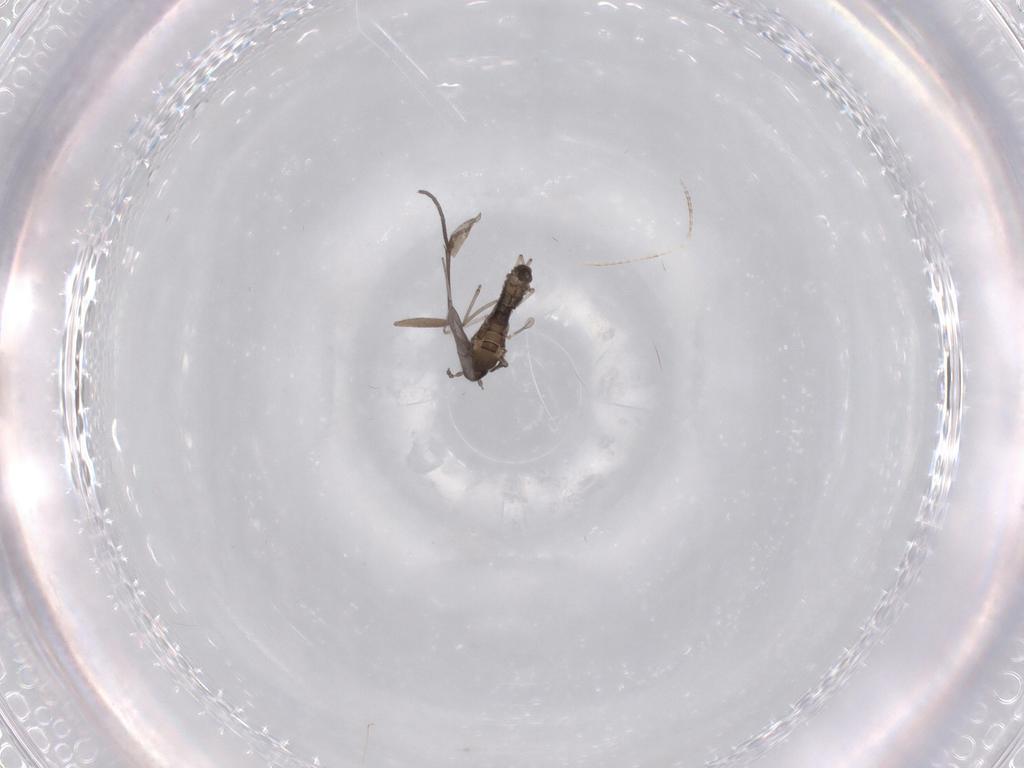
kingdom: Animalia
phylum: Arthropoda
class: Insecta
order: Diptera
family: Cecidomyiidae
